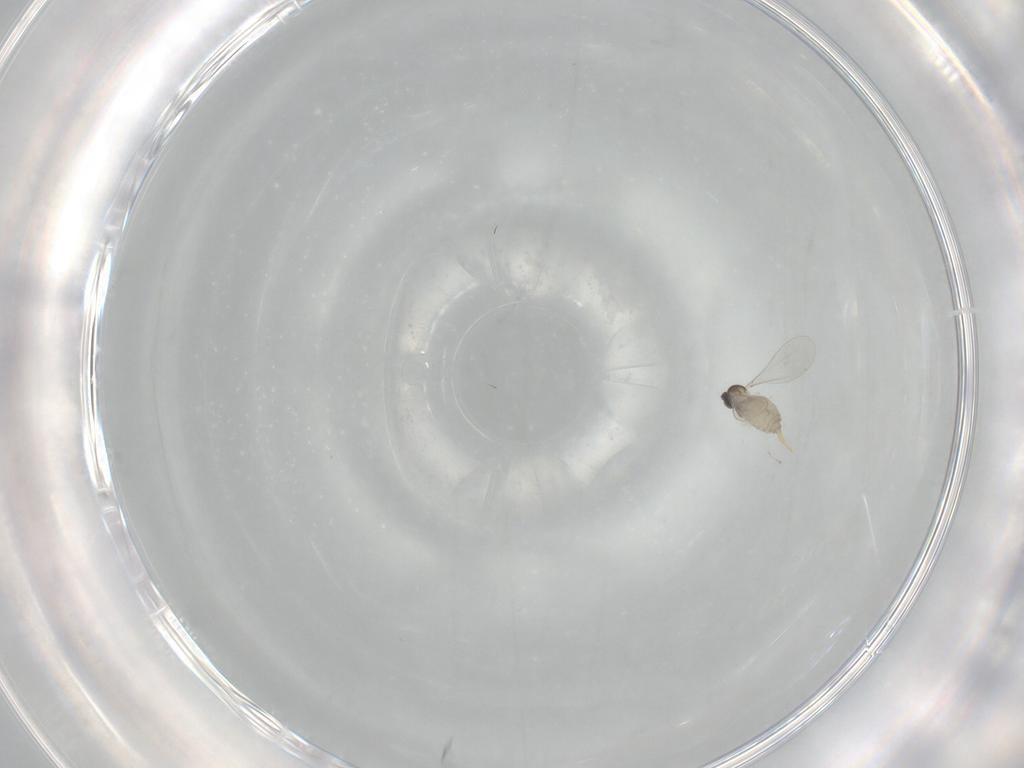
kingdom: Animalia
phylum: Arthropoda
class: Insecta
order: Diptera
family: Cecidomyiidae
